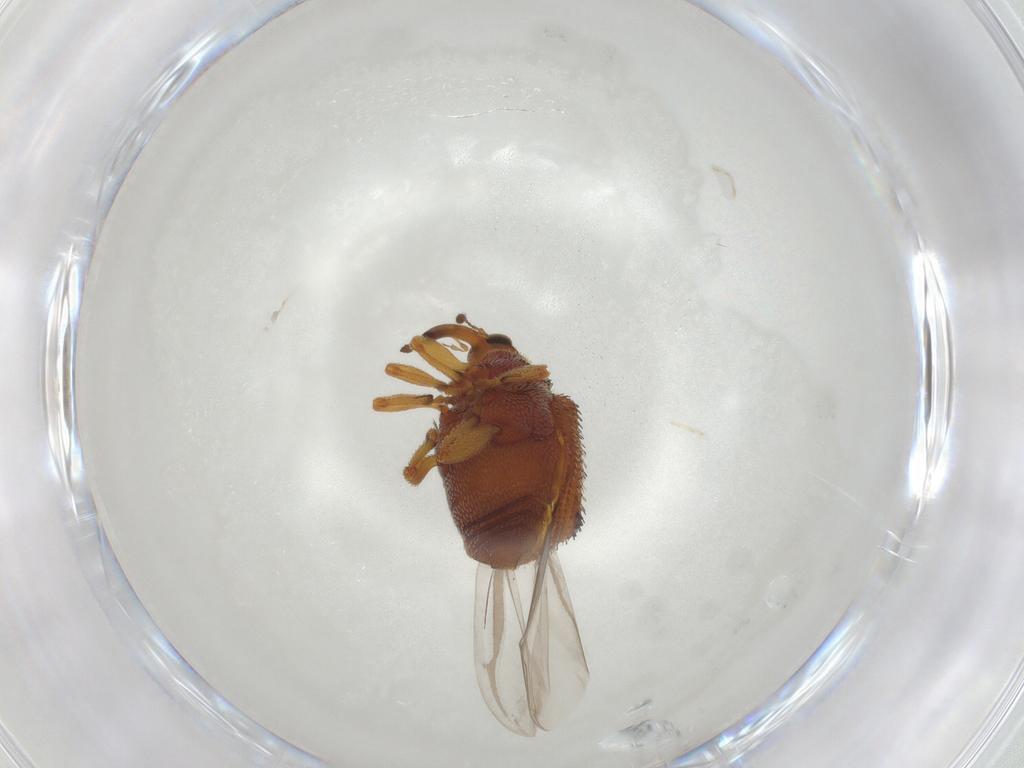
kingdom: Animalia
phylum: Arthropoda
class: Insecta
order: Coleoptera
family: Curculionidae
